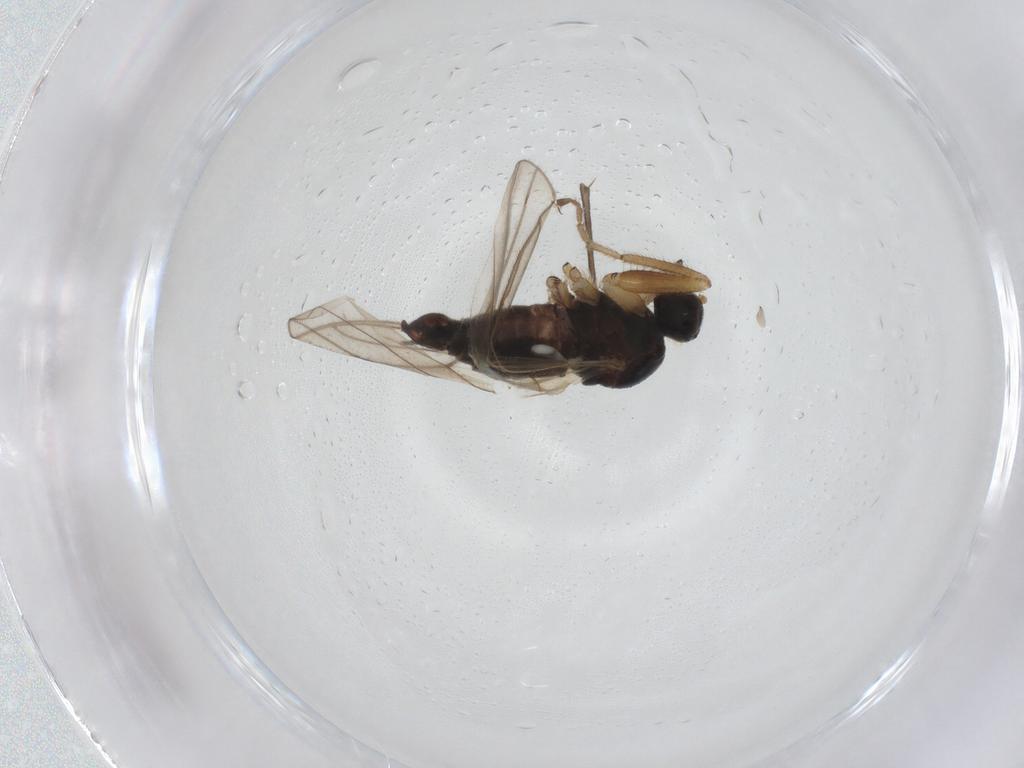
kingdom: Animalia
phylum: Arthropoda
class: Insecta
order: Diptera
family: Hybotidae
